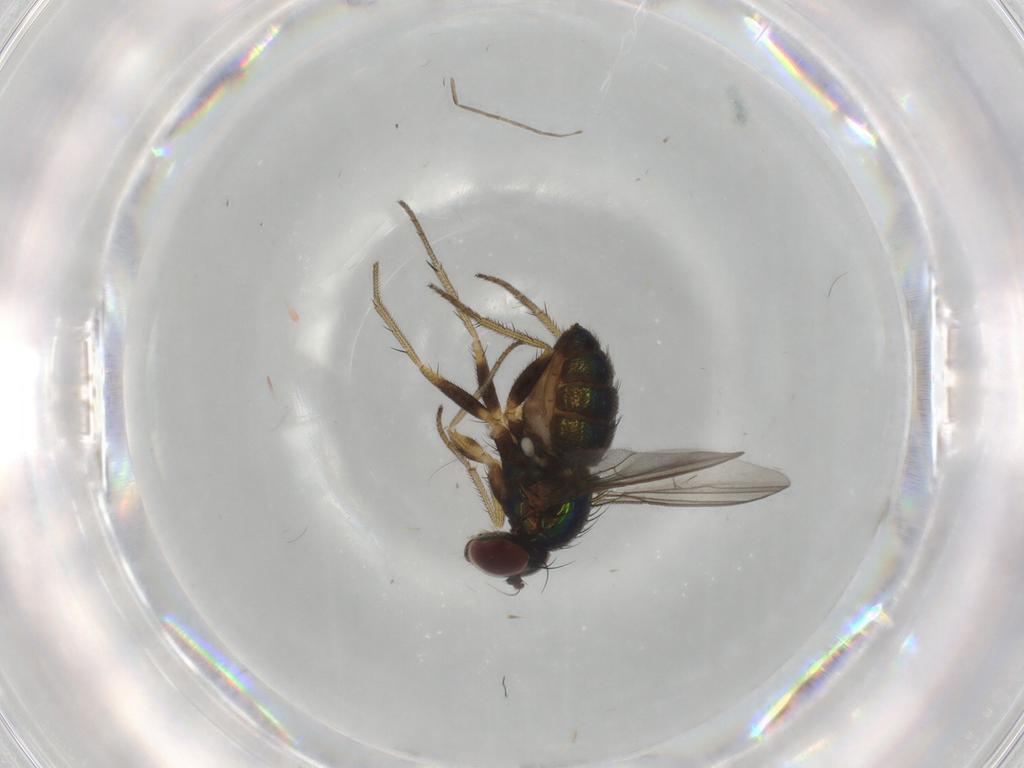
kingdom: Animalia
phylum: Arthropoda
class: Insecta
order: Diptera
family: Cecidomyiidae
